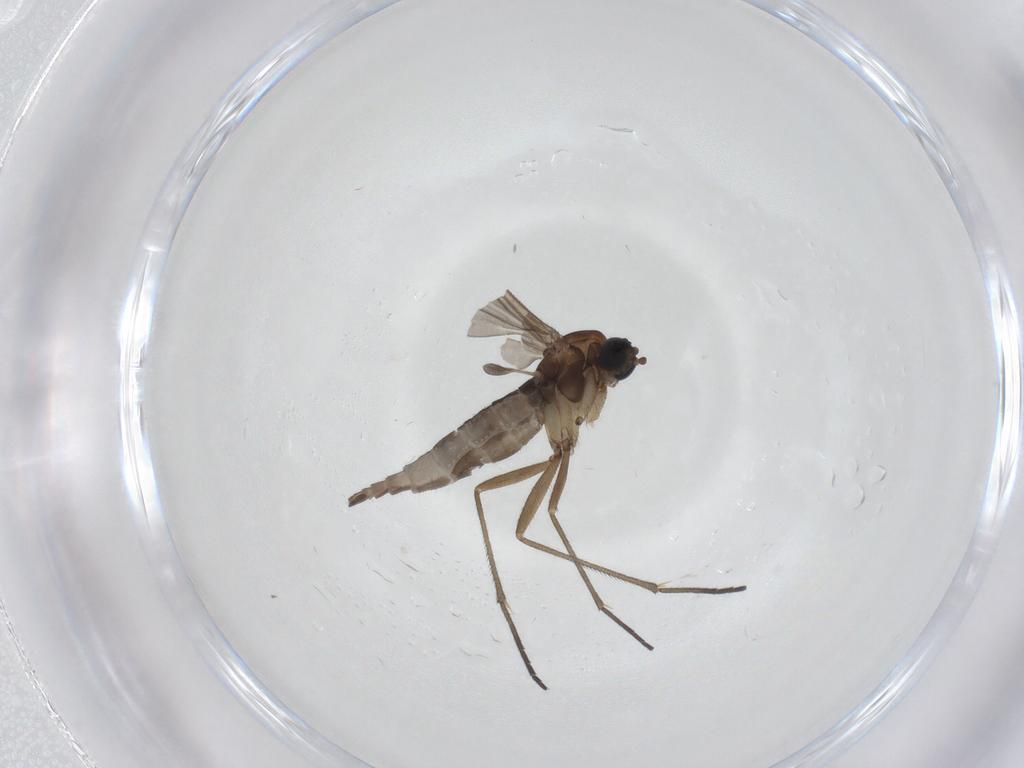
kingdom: Animalia
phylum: Arthropoda
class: Insecta
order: Diptera
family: Sciaridae
